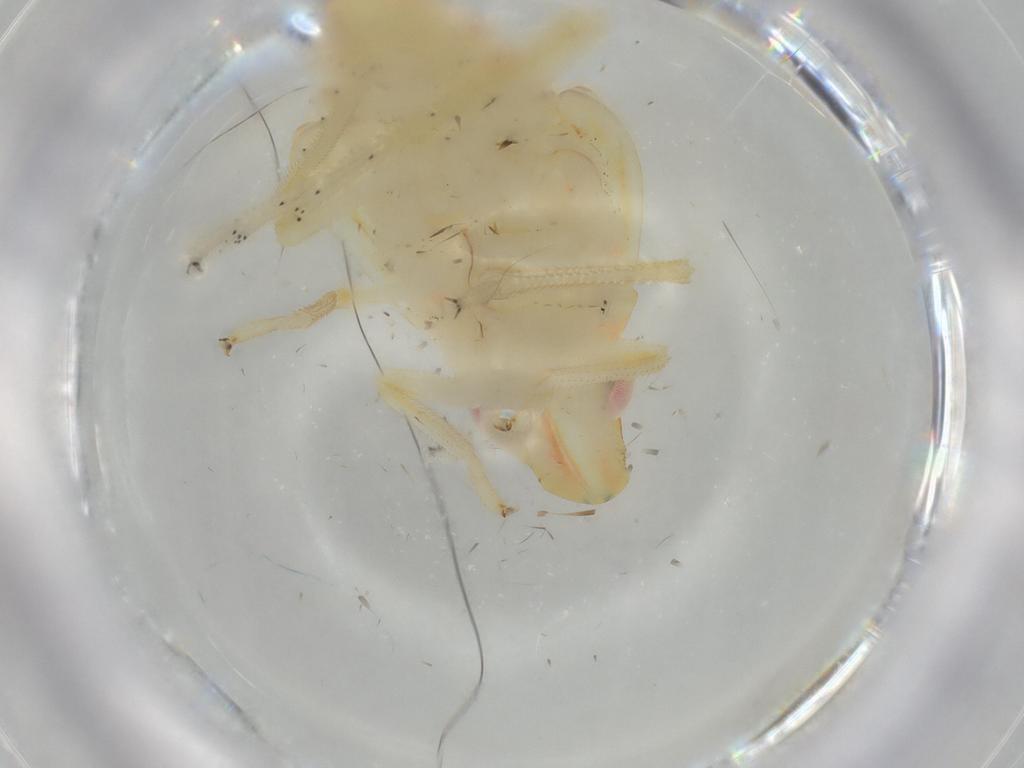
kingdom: Animalia
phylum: Arthropoda
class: Insecta
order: Hemiptera
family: Tropiduchidae
